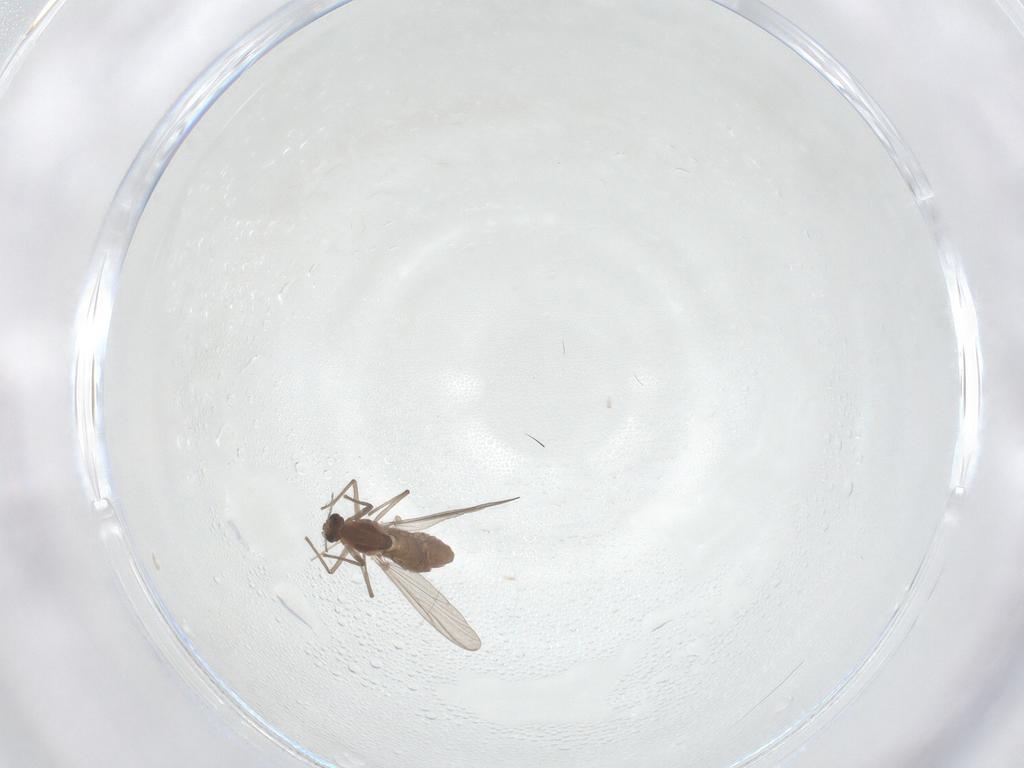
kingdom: Animalia
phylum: Arthropoda
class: Insecta
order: Diptera
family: Chironomidae
